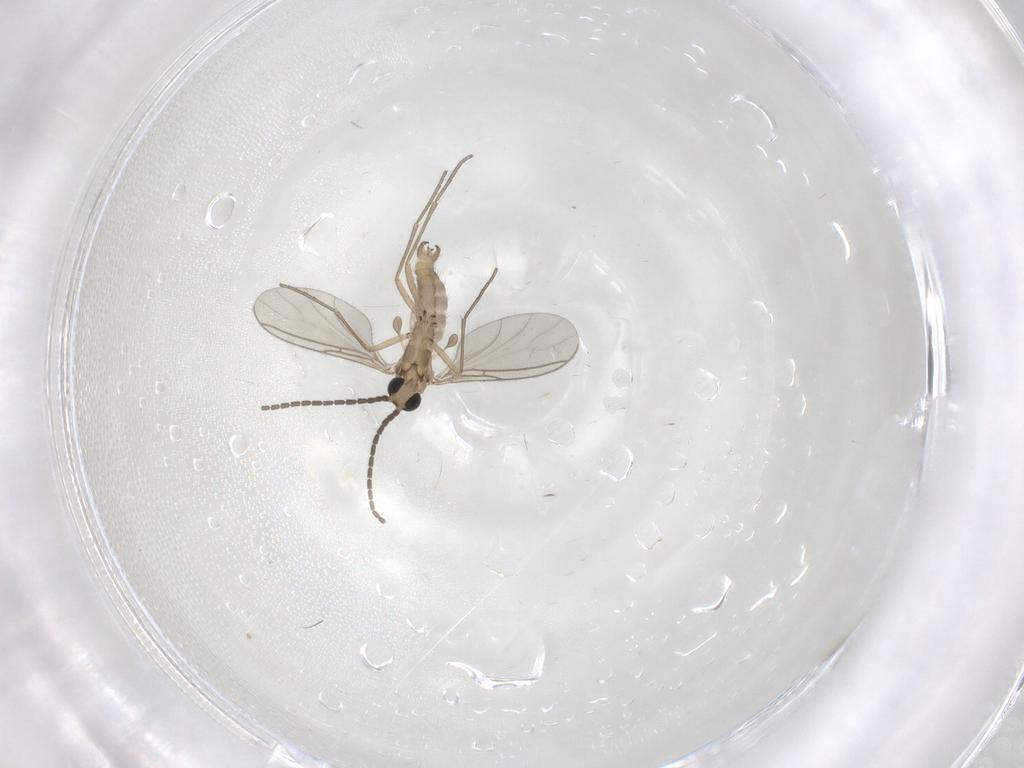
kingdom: Animalia
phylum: Arthropoda
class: Insecta
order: Diptera
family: Sciaridae
